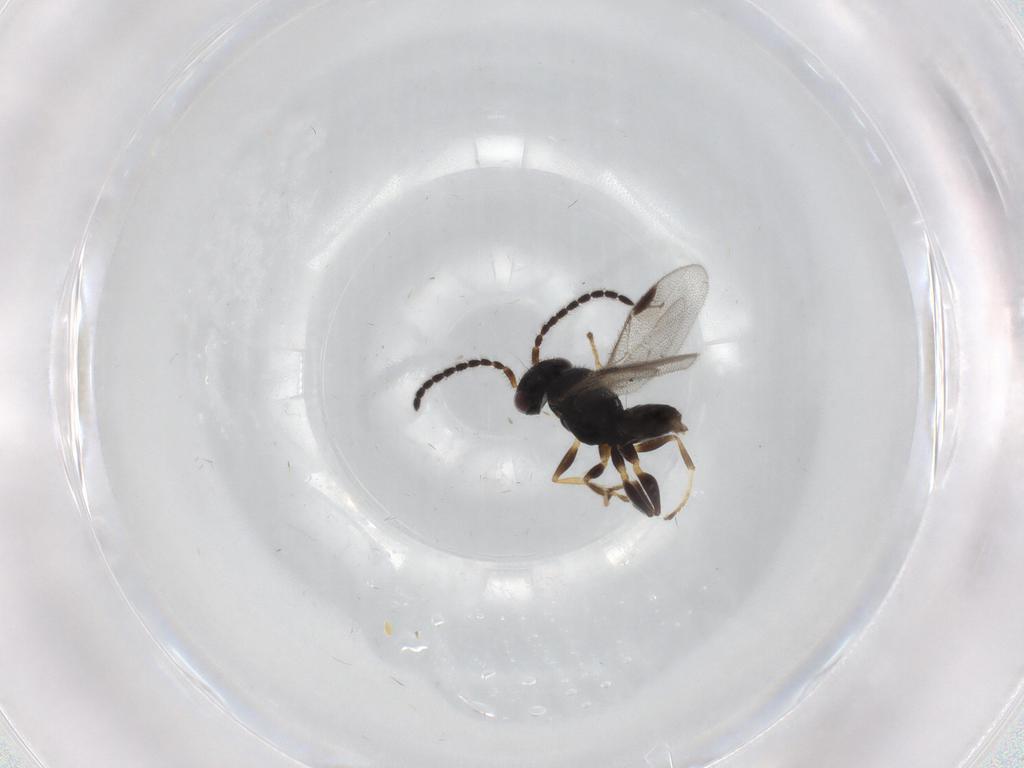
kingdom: Animalia
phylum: Arthropoda
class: Insecta
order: Hymenoptera
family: Dryinidae
